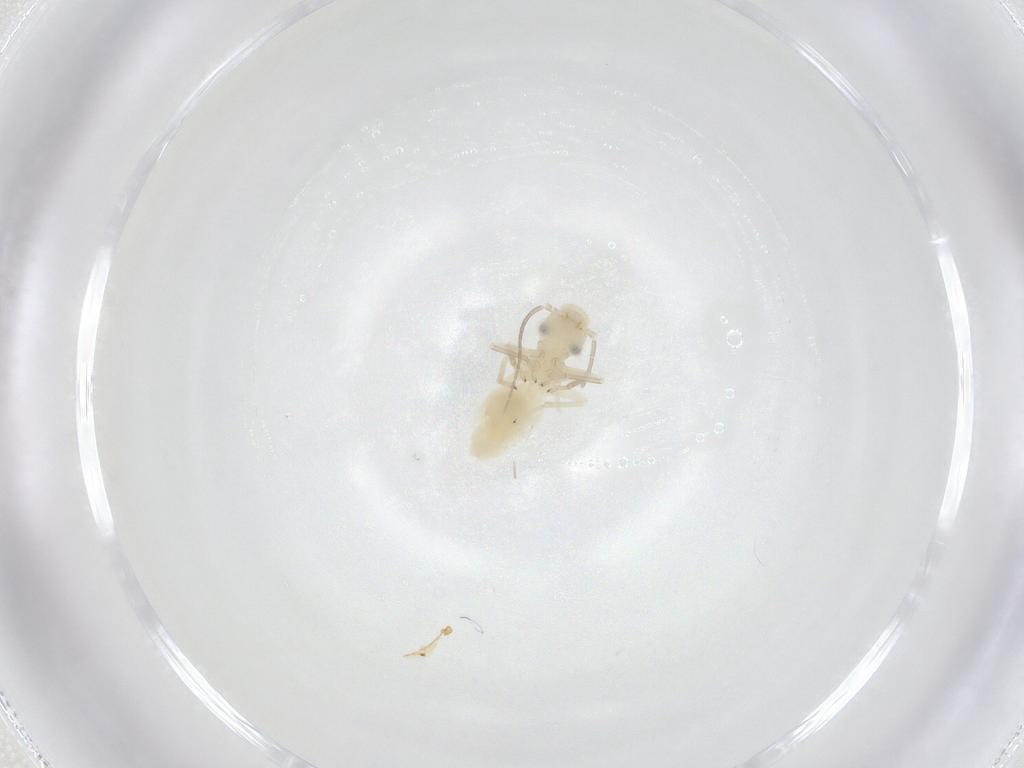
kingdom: Animalia
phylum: Arthropoda
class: Insecta
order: Psocodea
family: Caeciliusidae
